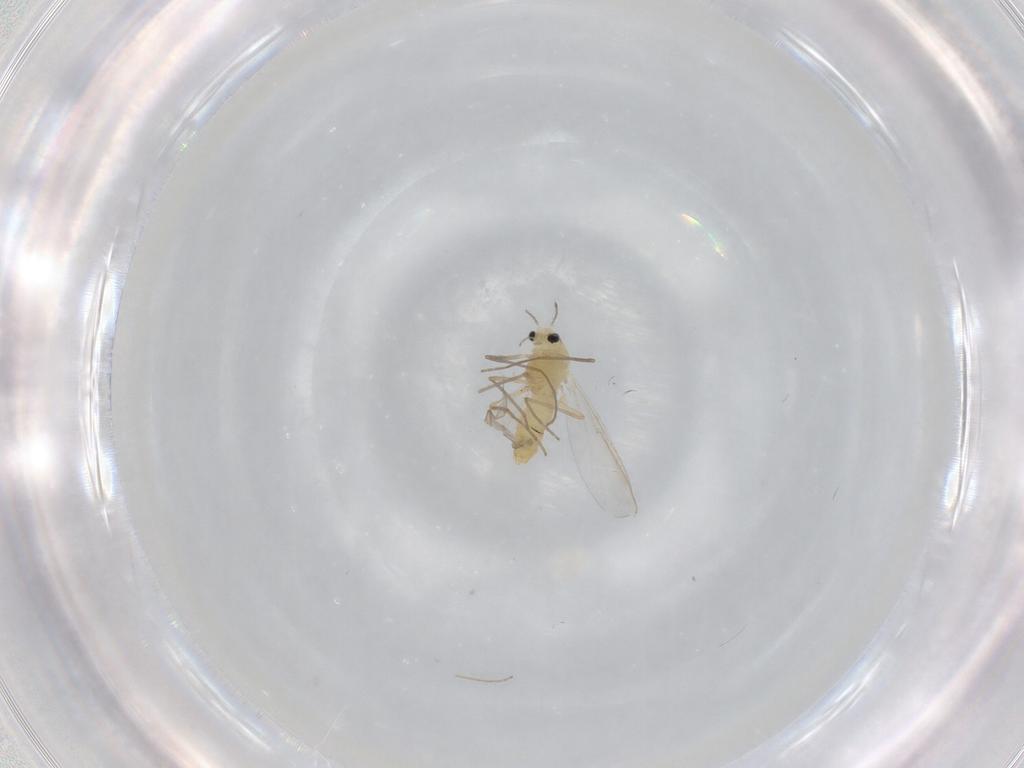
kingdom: Animalia
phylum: Arthropoda
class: Insecta
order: Diptera
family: Chironomidae
